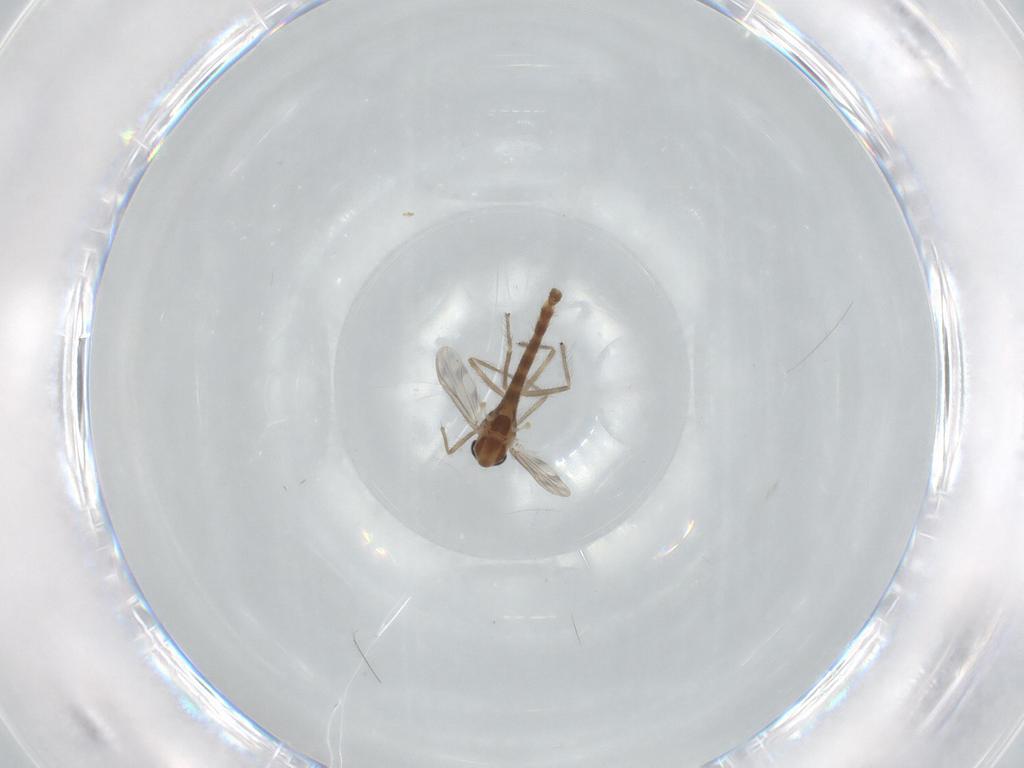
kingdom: Animalia
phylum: Arthropoda
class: Insecta
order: Diptera
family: Chironomidae
